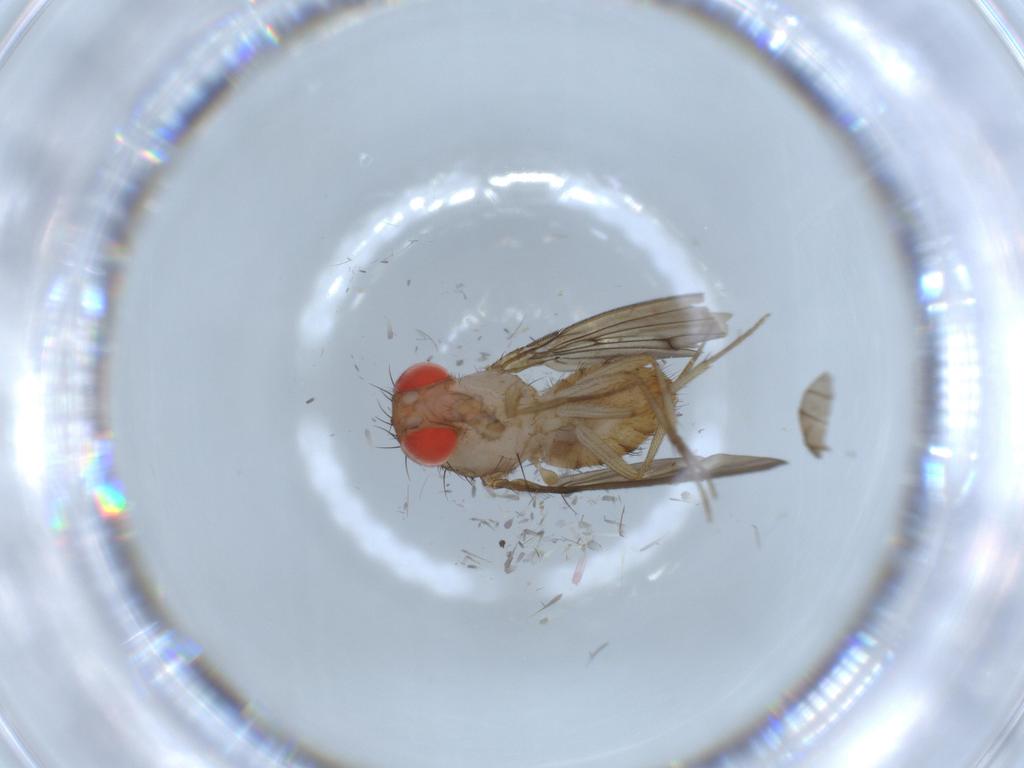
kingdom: Animalia
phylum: Arthropoda
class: Insecta
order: Diptera
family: Drosophilidae
